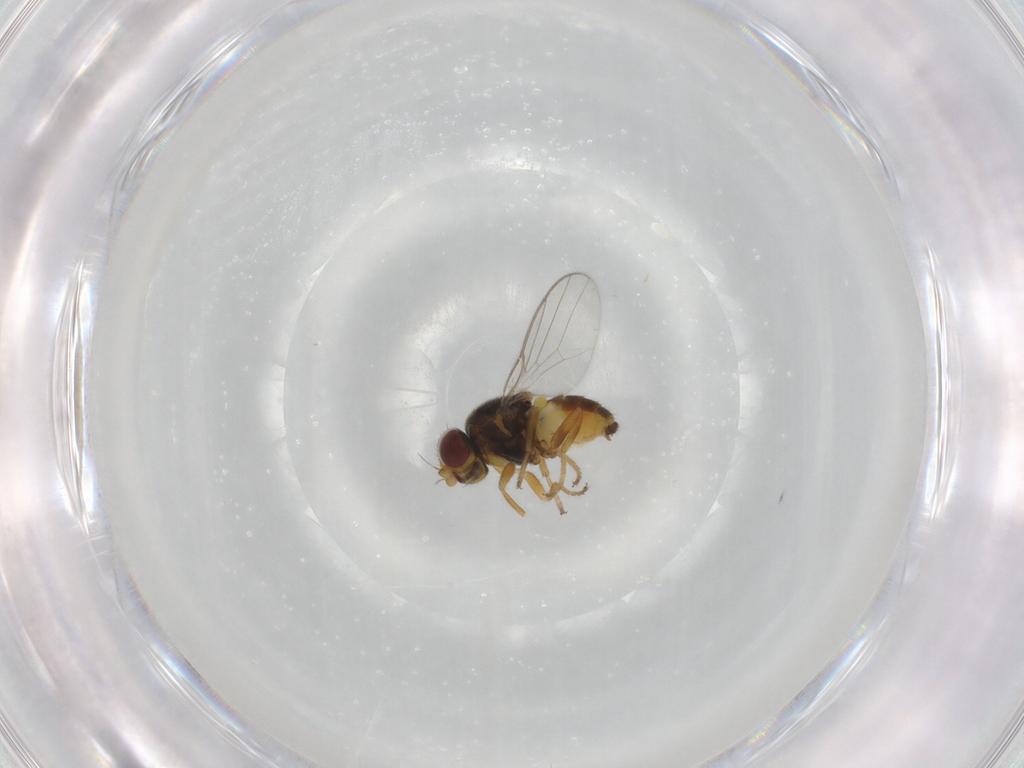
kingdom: Animalia
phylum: Arthropoda
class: Insecta
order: Diptera
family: Chloropidae
